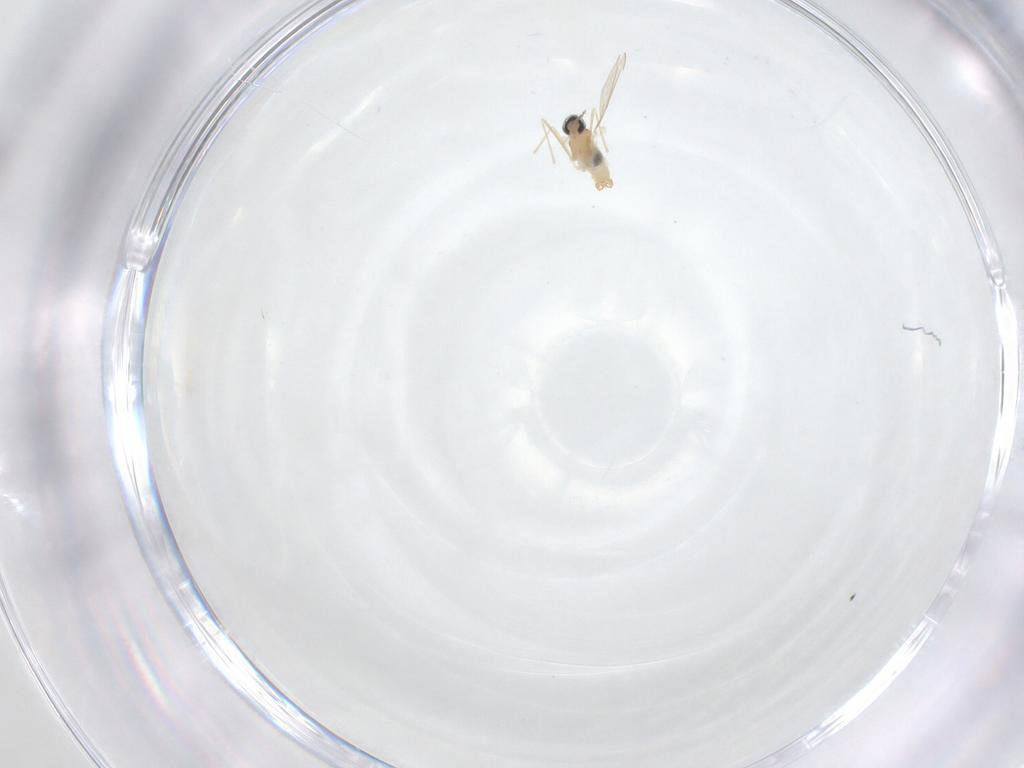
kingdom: Animalia
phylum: Arthropoda
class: Insecta
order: Diptera
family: Cecidomyiidae
